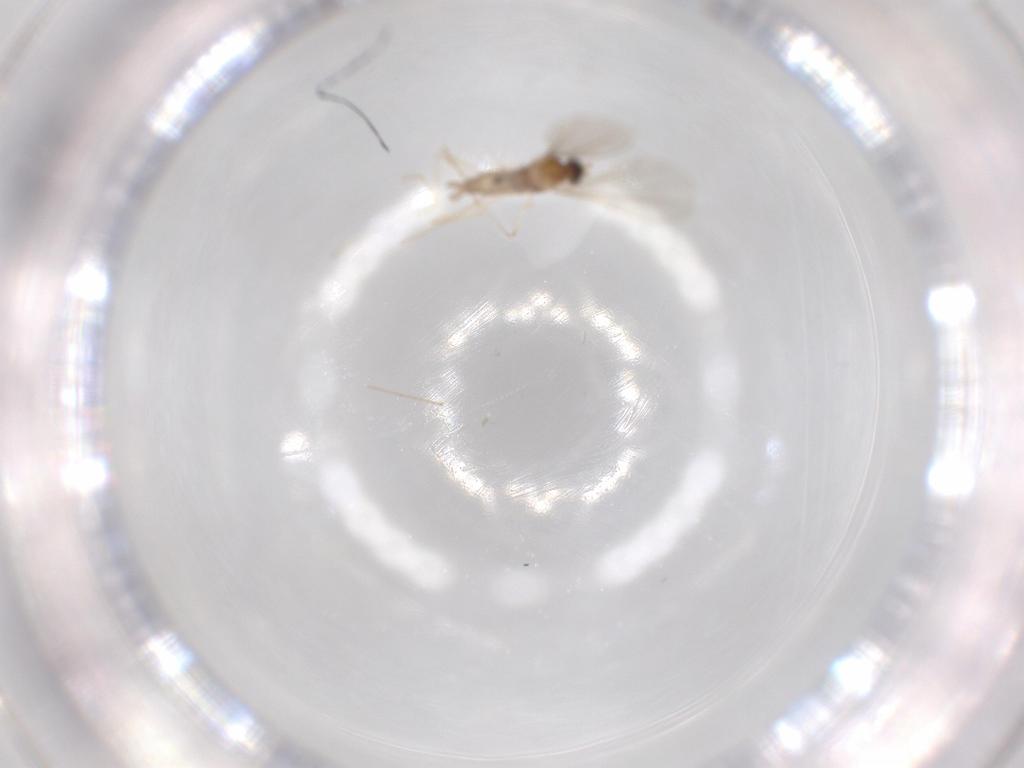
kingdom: Animalia
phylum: Arthropoda
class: Insecta
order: Diptera
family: Cecidomyiidae
